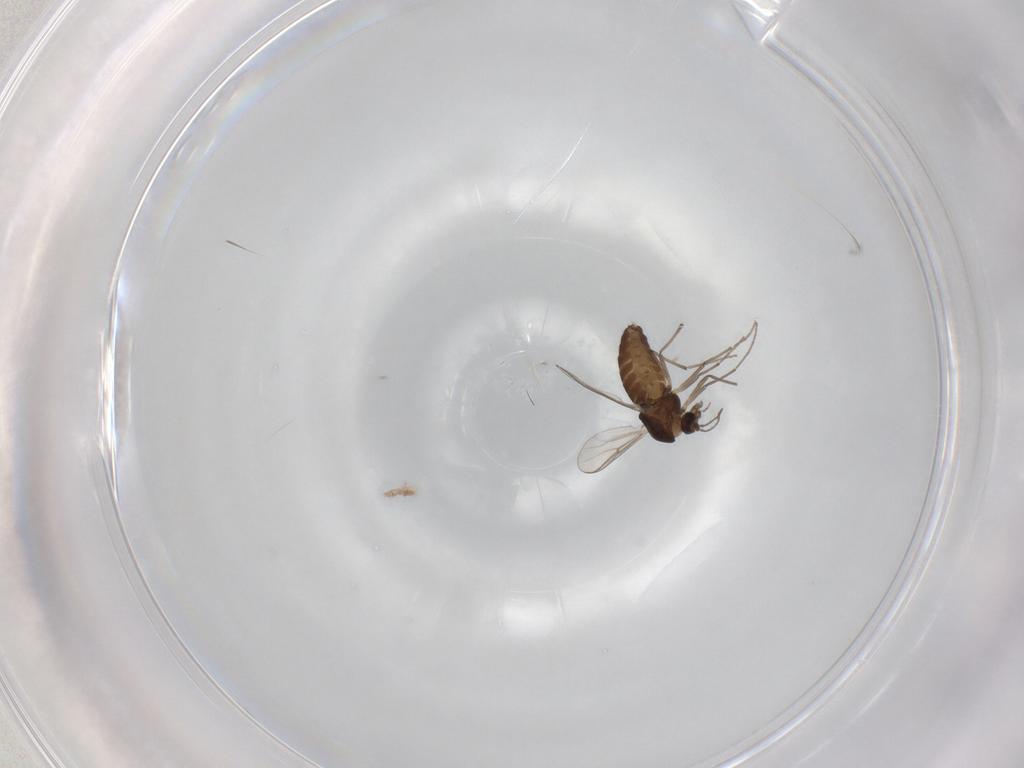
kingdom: Animalia
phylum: Arthropoda
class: Insecta
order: Diptera
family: Chironomidae
